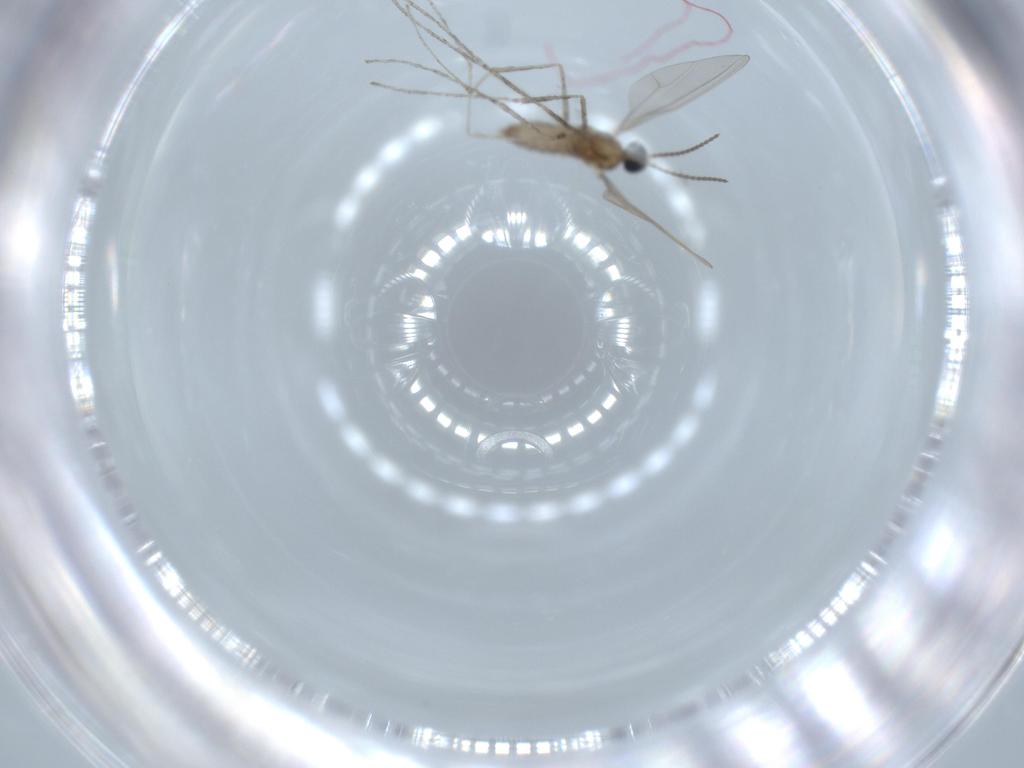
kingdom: Animalia
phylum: Arthropoda
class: Insecta
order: Diptera
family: Cecidomyiidae
